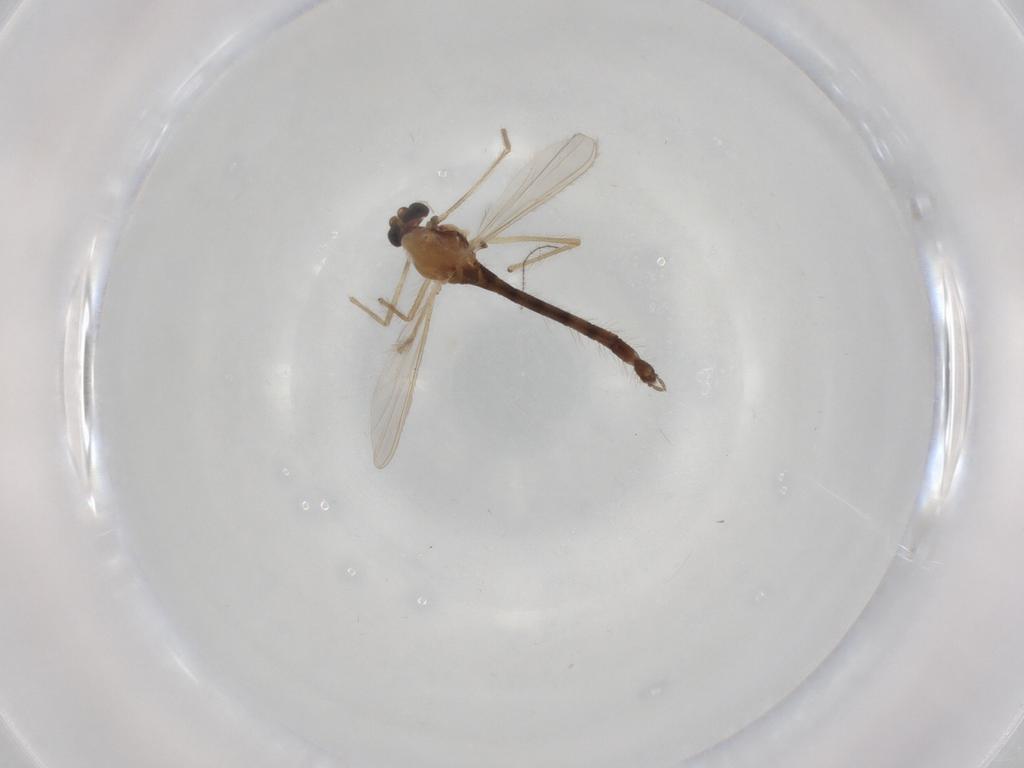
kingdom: Animalia
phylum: Arthropoda
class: Insecta
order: Diptera
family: Chironomidae
